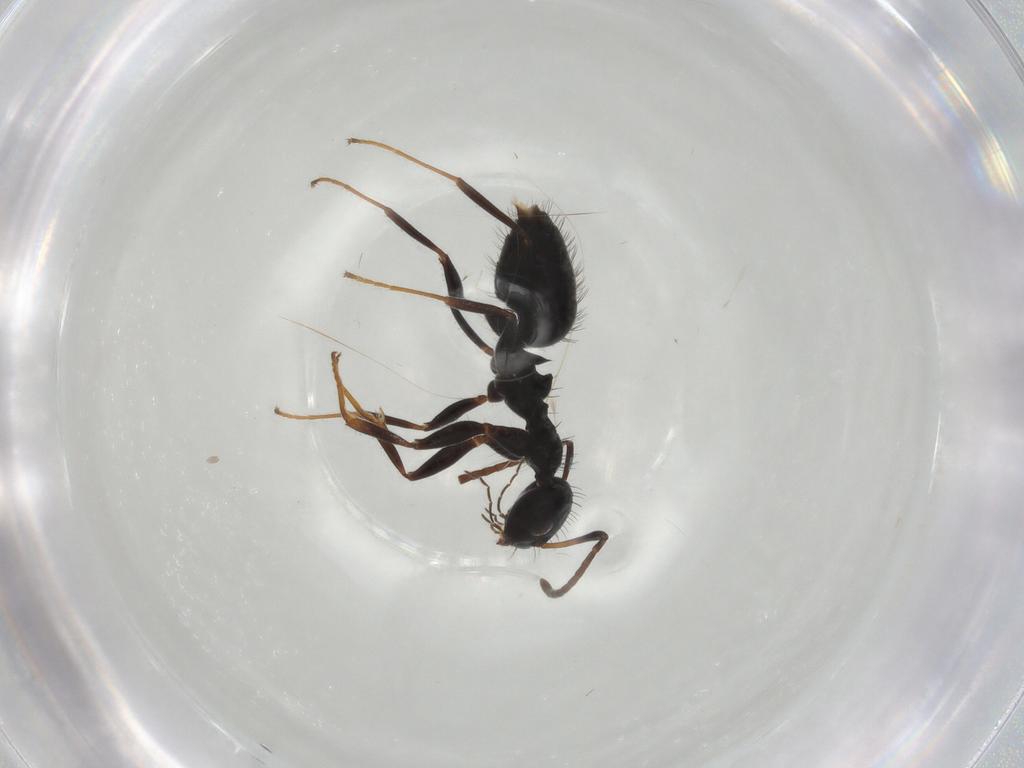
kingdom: Animalia
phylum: Arthropoda
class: Insecta
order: Hymenoptera
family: Formicidae
